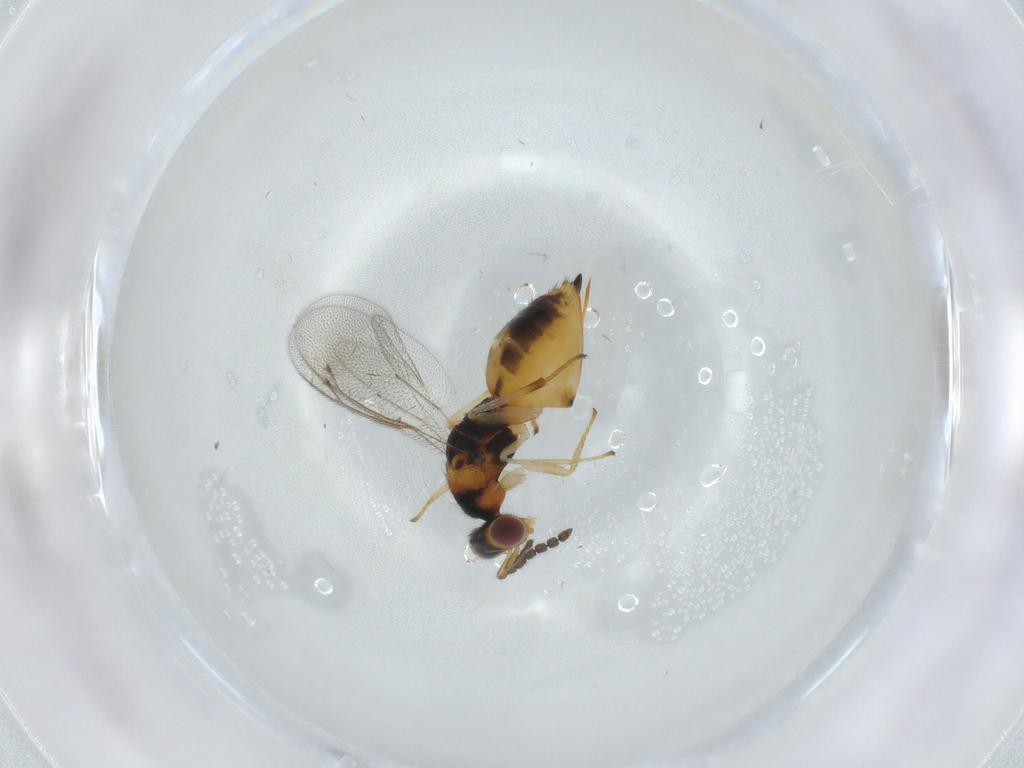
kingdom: Animalia
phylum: Arthropoda
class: Insecta
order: Hymenoptera
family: Eulophidae
